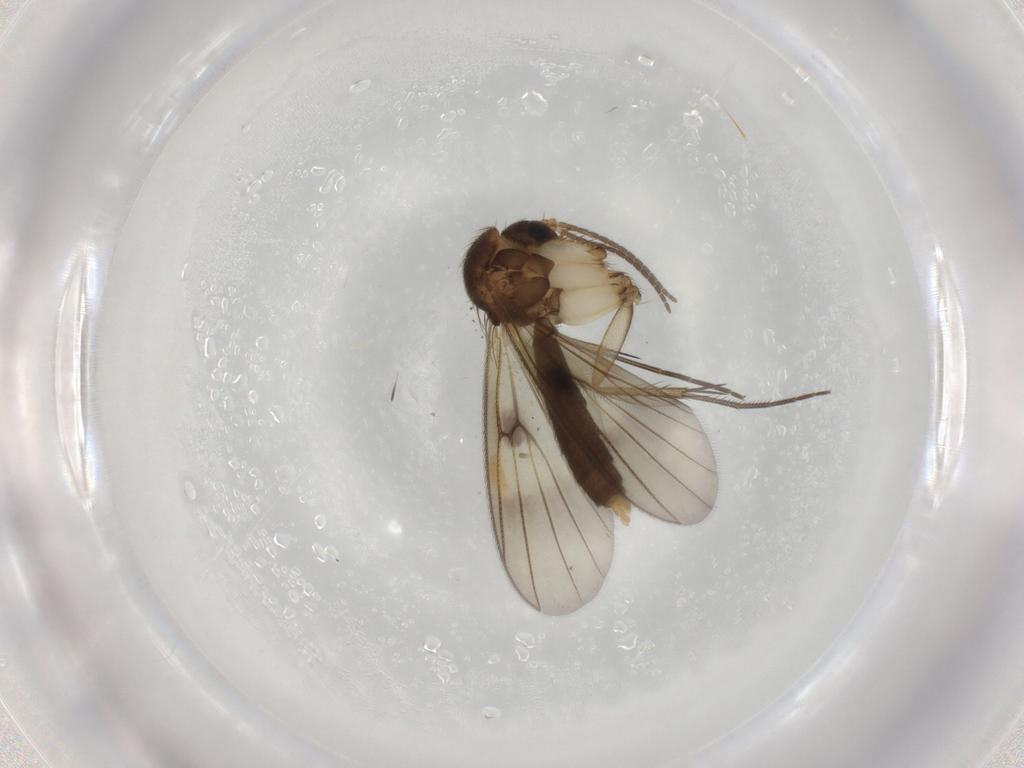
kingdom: Animalia
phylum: Arthropoda
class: Insecta
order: Diptera
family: Mycetophilidae
